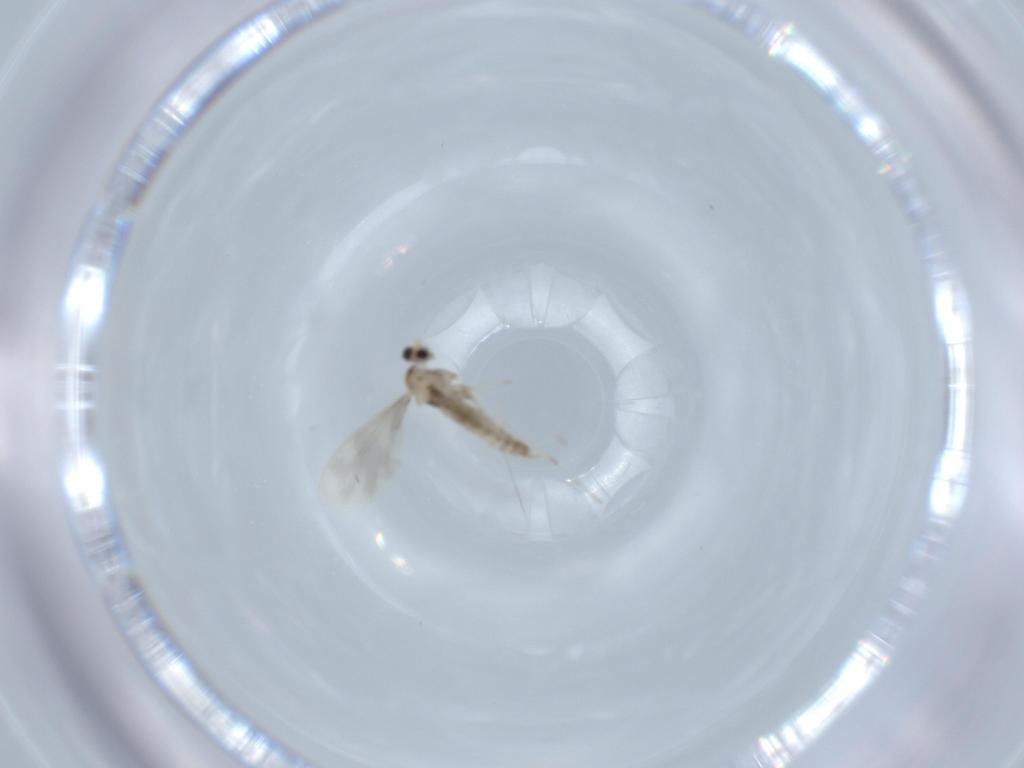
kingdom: Animalia
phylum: Arthropoda
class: Insecta
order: Diptera
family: Cecidomyiidae
